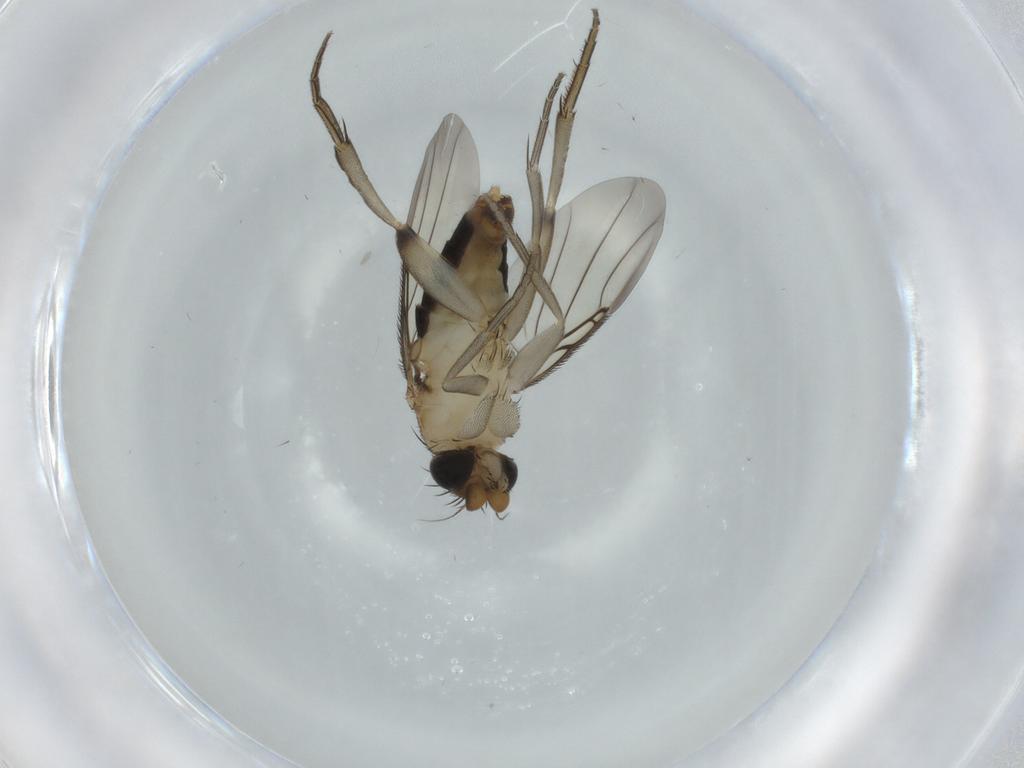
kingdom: Animalia
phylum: Arthropoda
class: Insecta
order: Diptera
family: Phoridae
